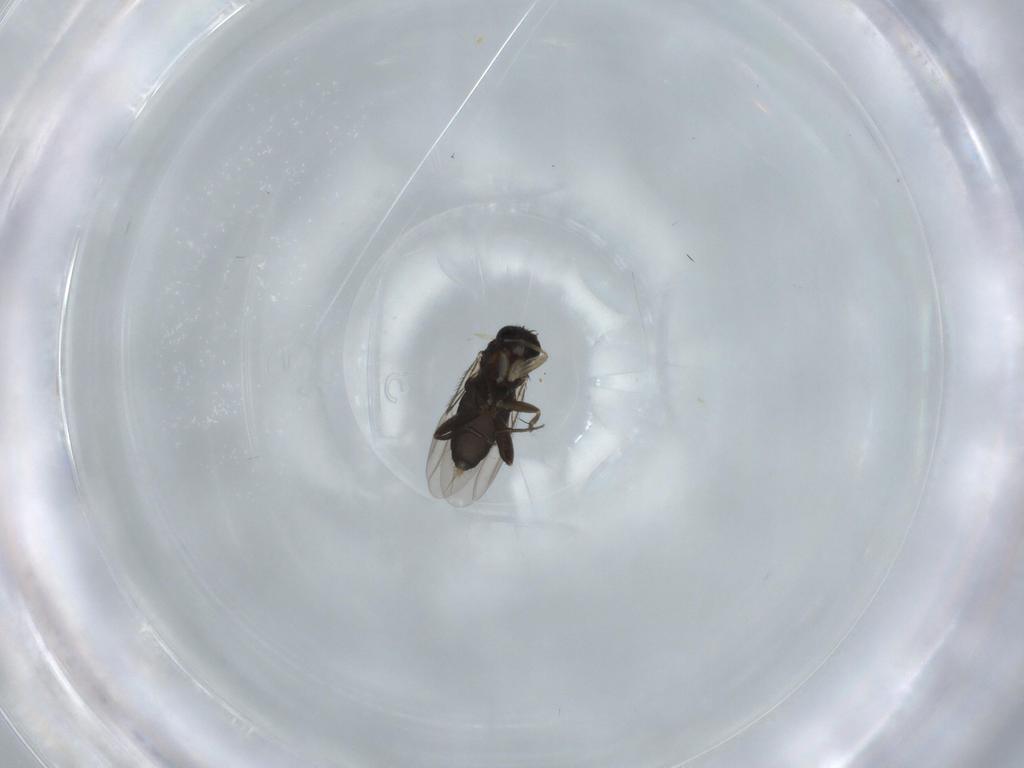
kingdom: Animalia
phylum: Arthropoda
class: Insecta
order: Diptera
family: Phoridae
